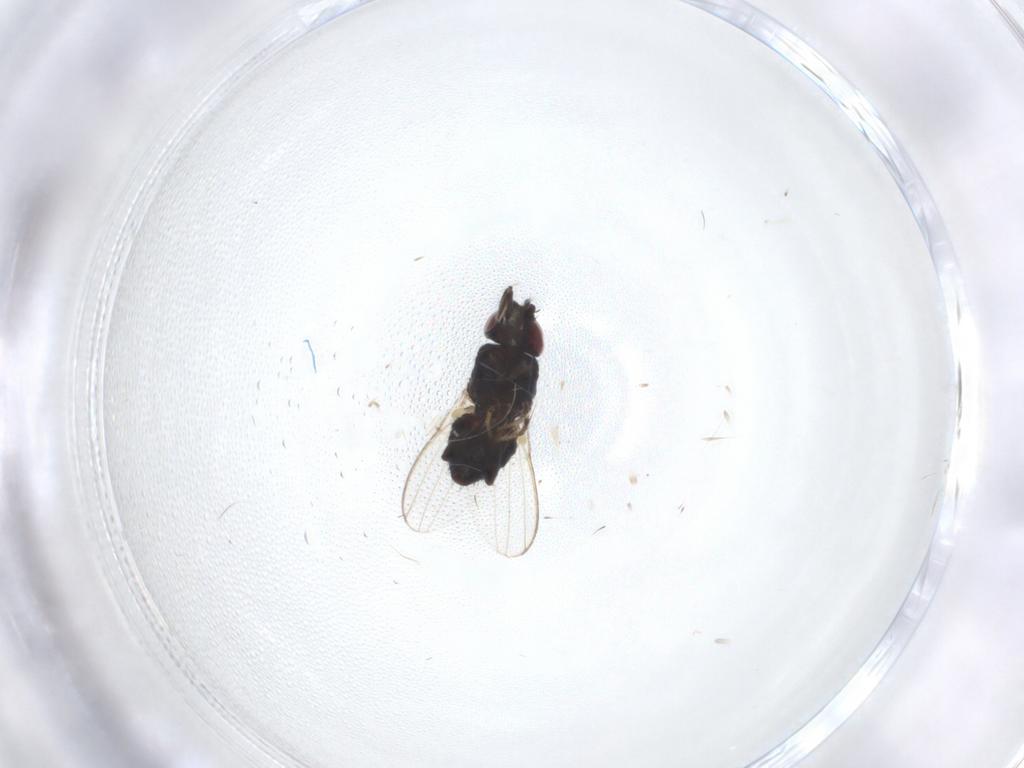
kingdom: Animalia
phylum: Arthropoda
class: Insecta
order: Diptera
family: Milichiidae
